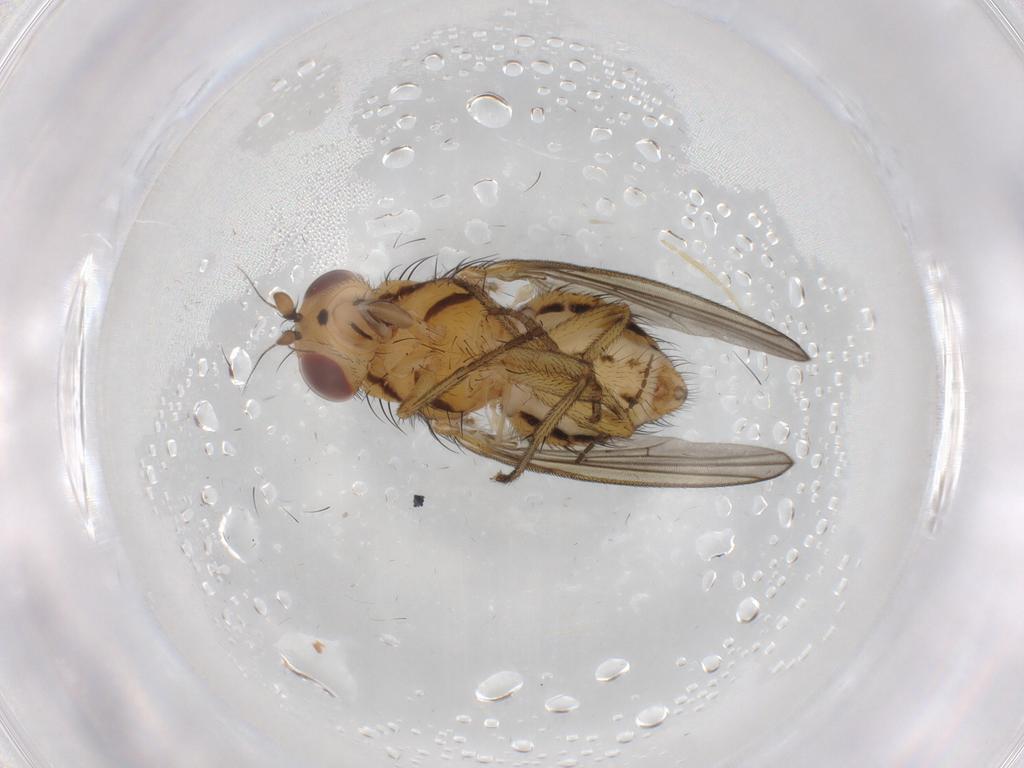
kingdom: Animalia
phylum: Arthropoda
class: Insecta
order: Diptera
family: Sciaridae
